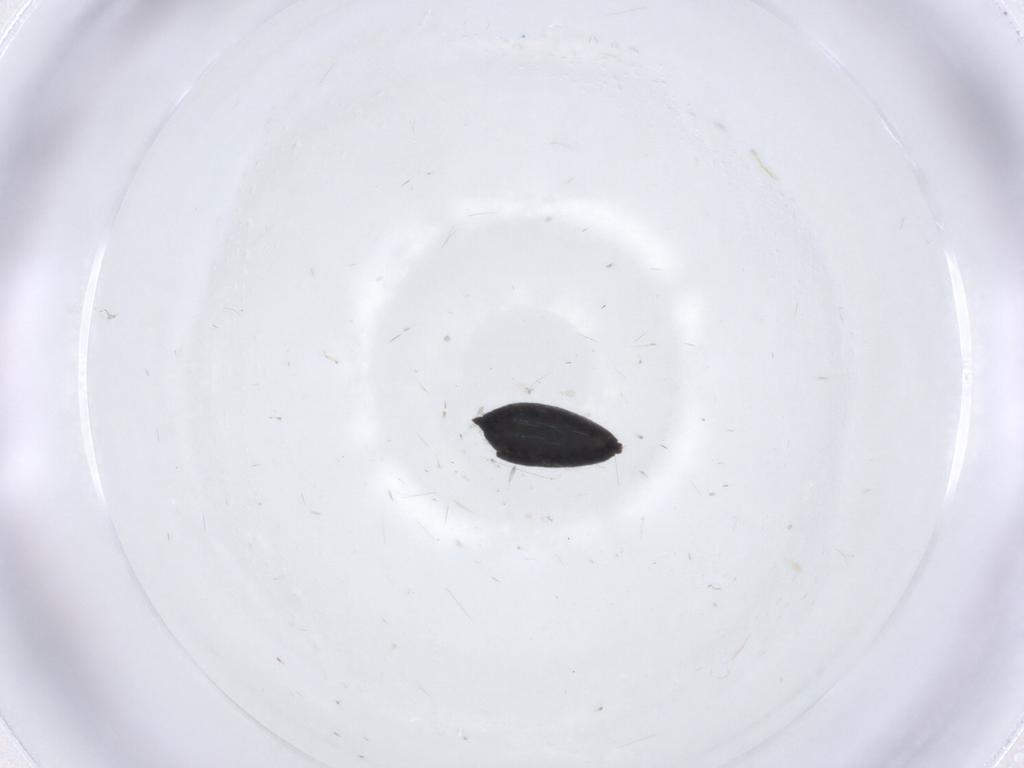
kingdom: Animalia
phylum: Arthropoda
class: Insecta
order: Hymenoptera
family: Cleonyminae
